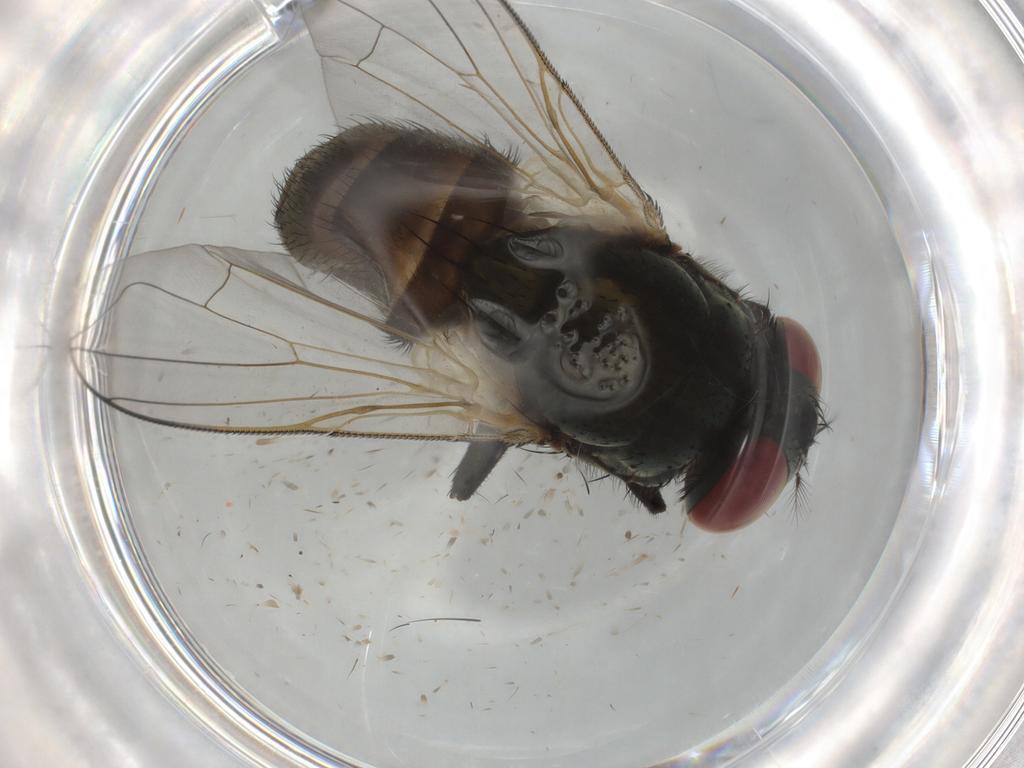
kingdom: Animalia
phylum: Arthropoda
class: Insecta
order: Diptera
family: Muscidae
